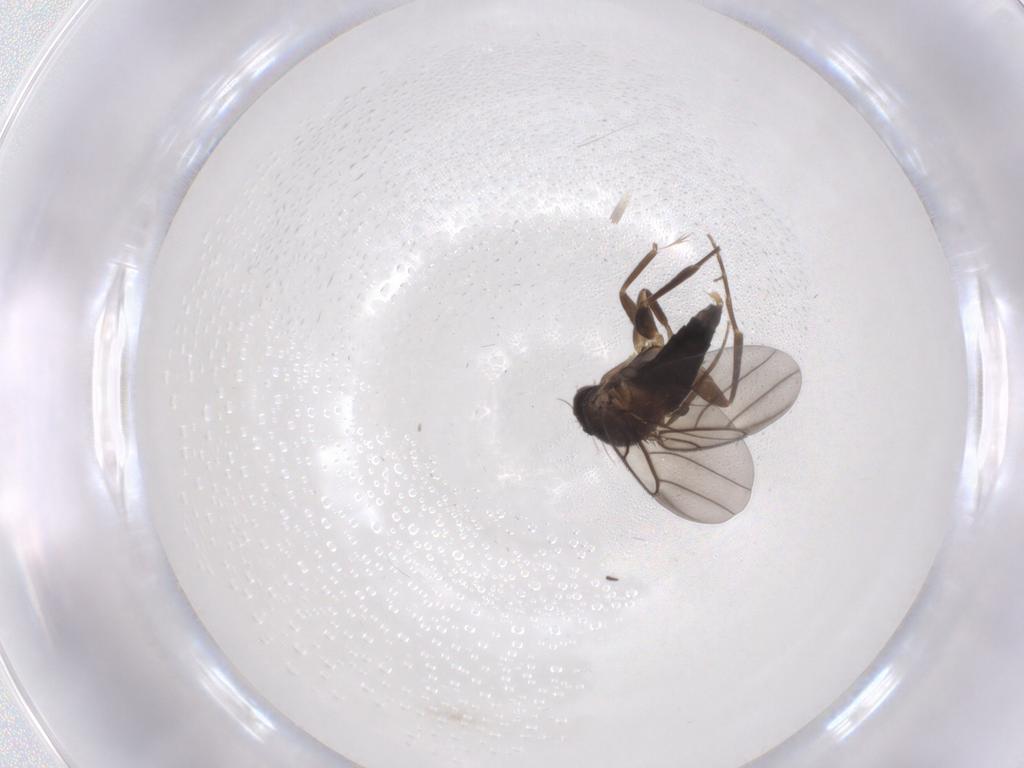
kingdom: Animalia
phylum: Arthropoda
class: Insecta
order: Diptera
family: Phoridae
